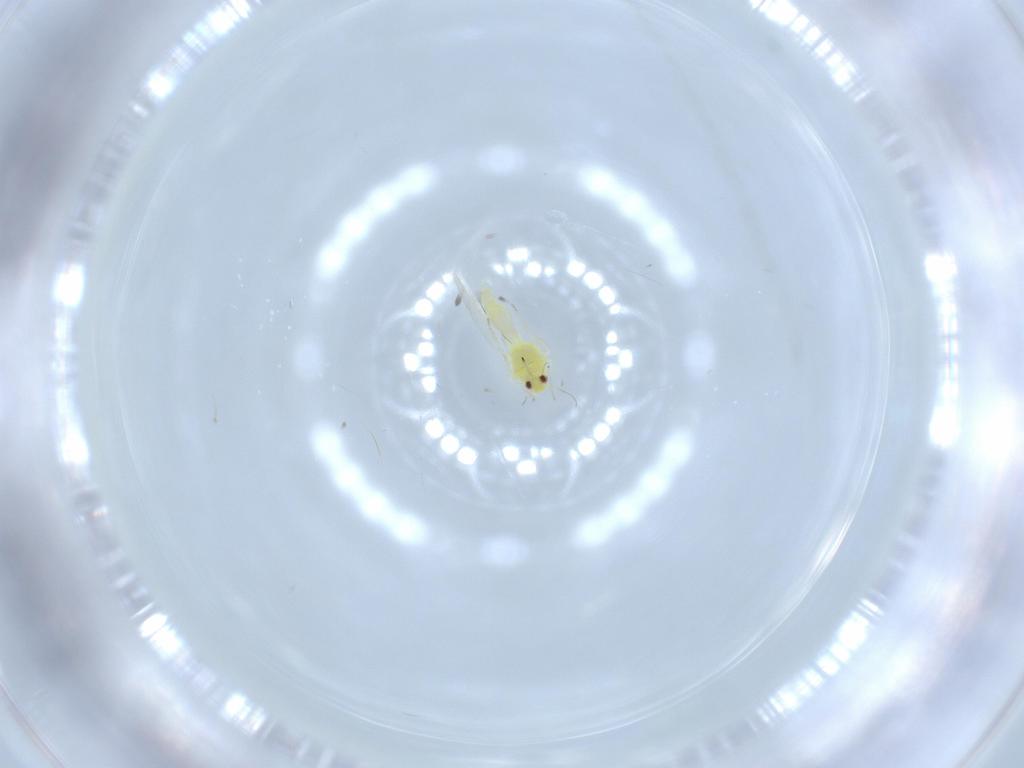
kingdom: Animalia
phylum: Arthropoda
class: Insecta
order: Hemiptera
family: Aleyrodidae
